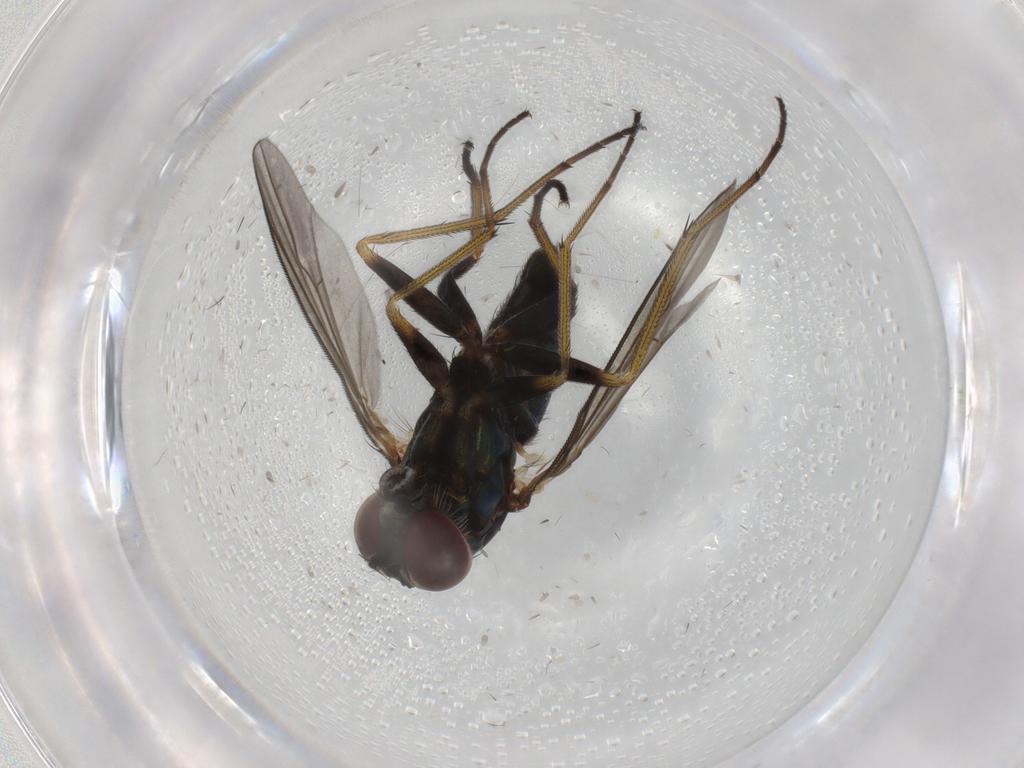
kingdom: Animalia
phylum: Arthropoda
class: Insecta
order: Diptera
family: Dolichopodidae
